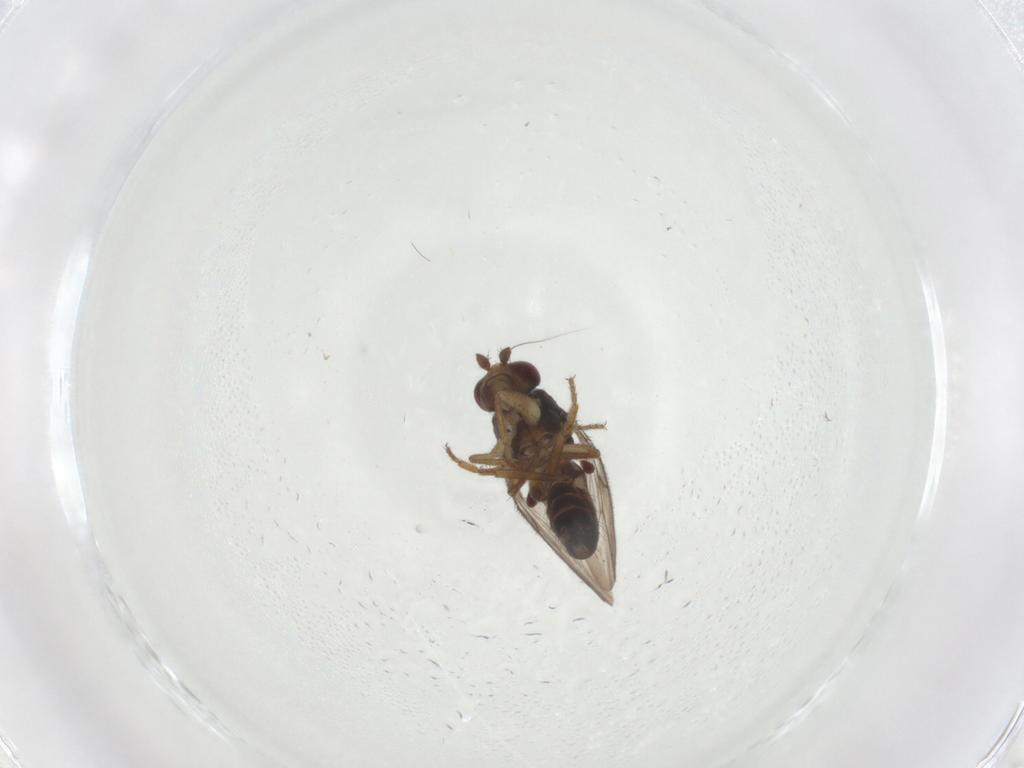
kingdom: Animalia
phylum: Arthropoda
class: Insecta
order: Diptera
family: Sphaeroceridae
